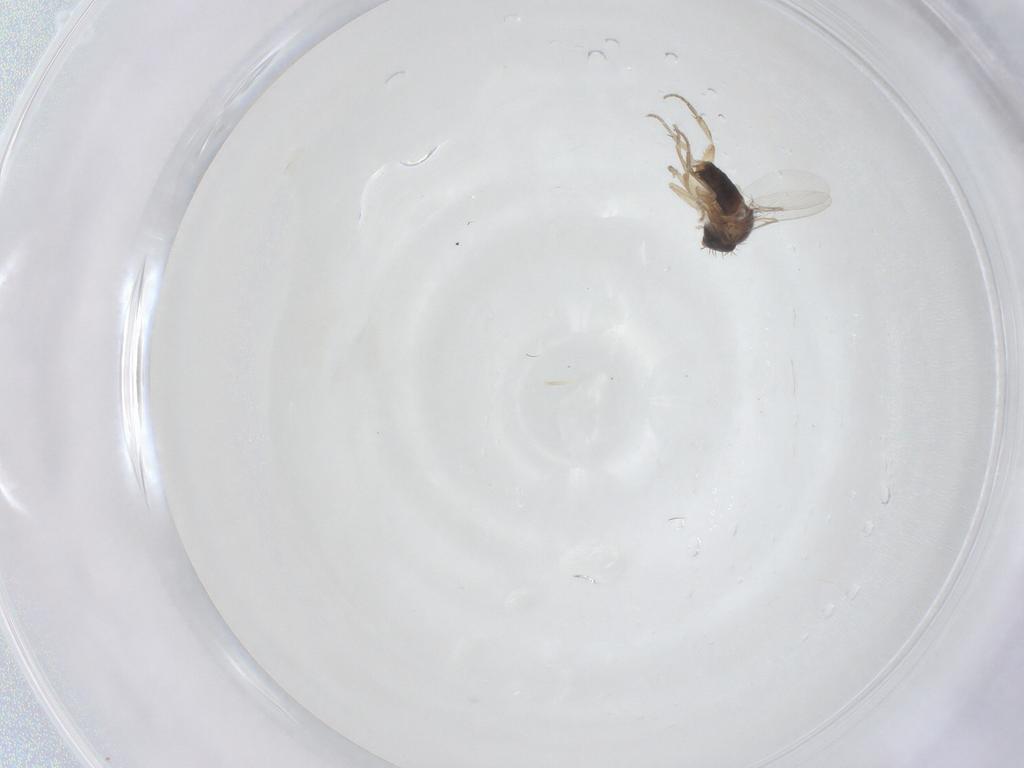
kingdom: Animalia
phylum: Arthropoda
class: Insecta
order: Diptera
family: Phoridae
